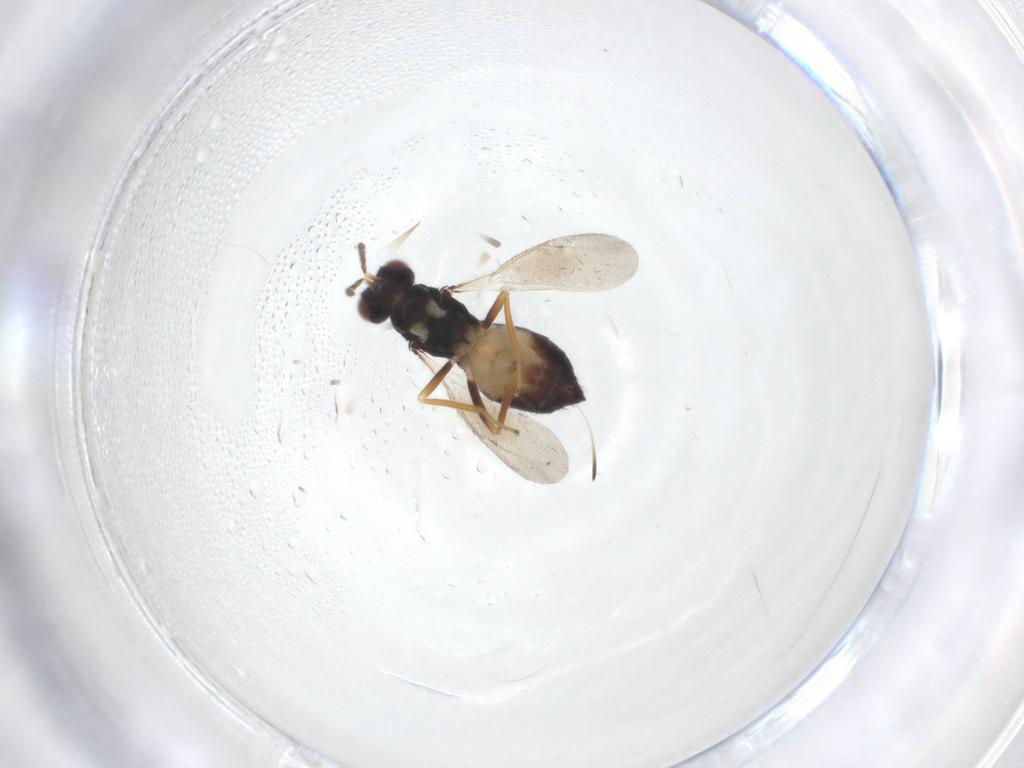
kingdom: Animalia
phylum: Arthropoda
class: Insecta
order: Hymenoptera
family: Eulophidae
